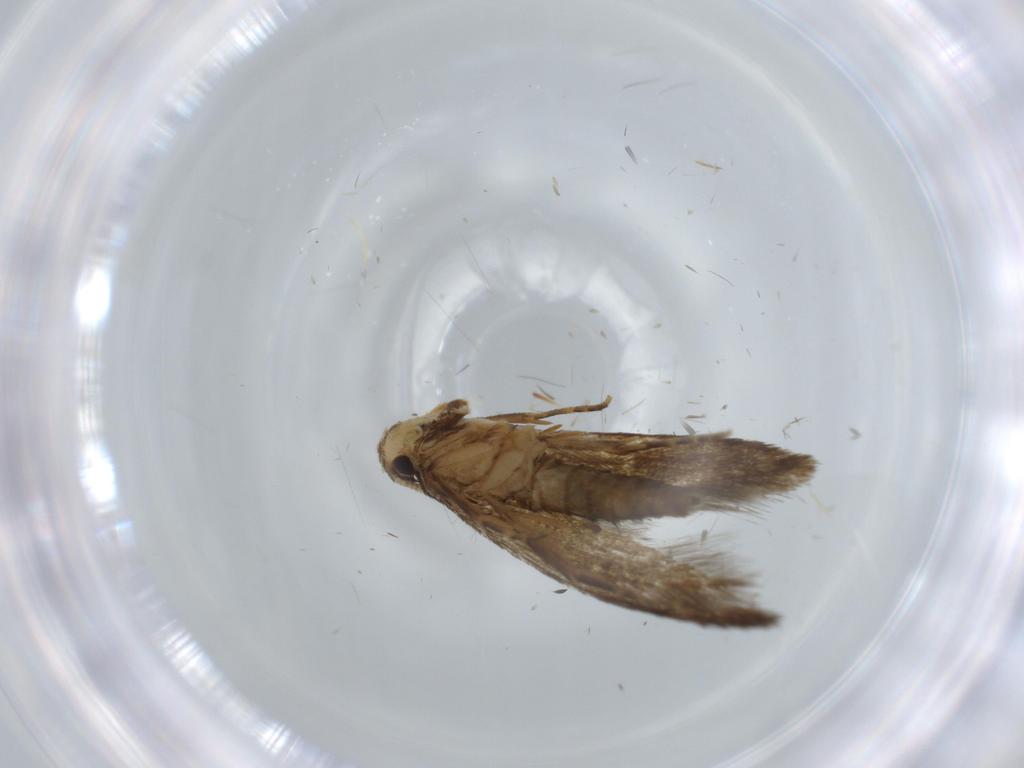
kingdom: Animalia
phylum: Arthropoda
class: Insecta
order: Lepidoptera
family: Tineidae
